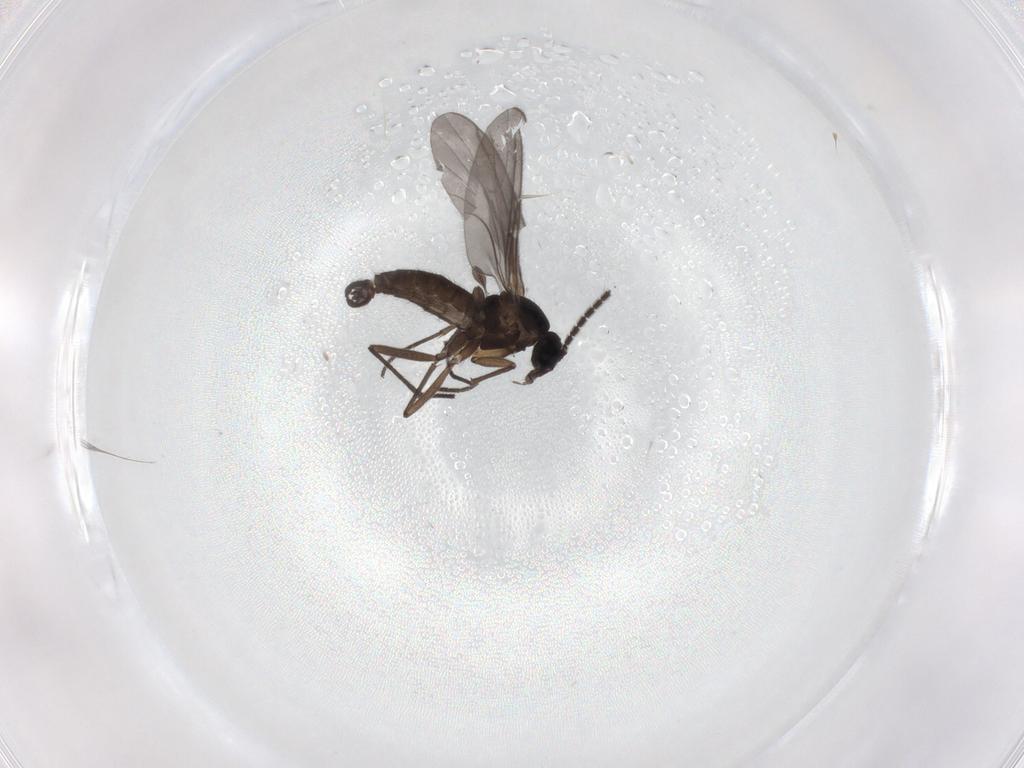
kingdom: Animalia
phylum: Arthropoda
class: Insecta
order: Diptera
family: Sciaridae
